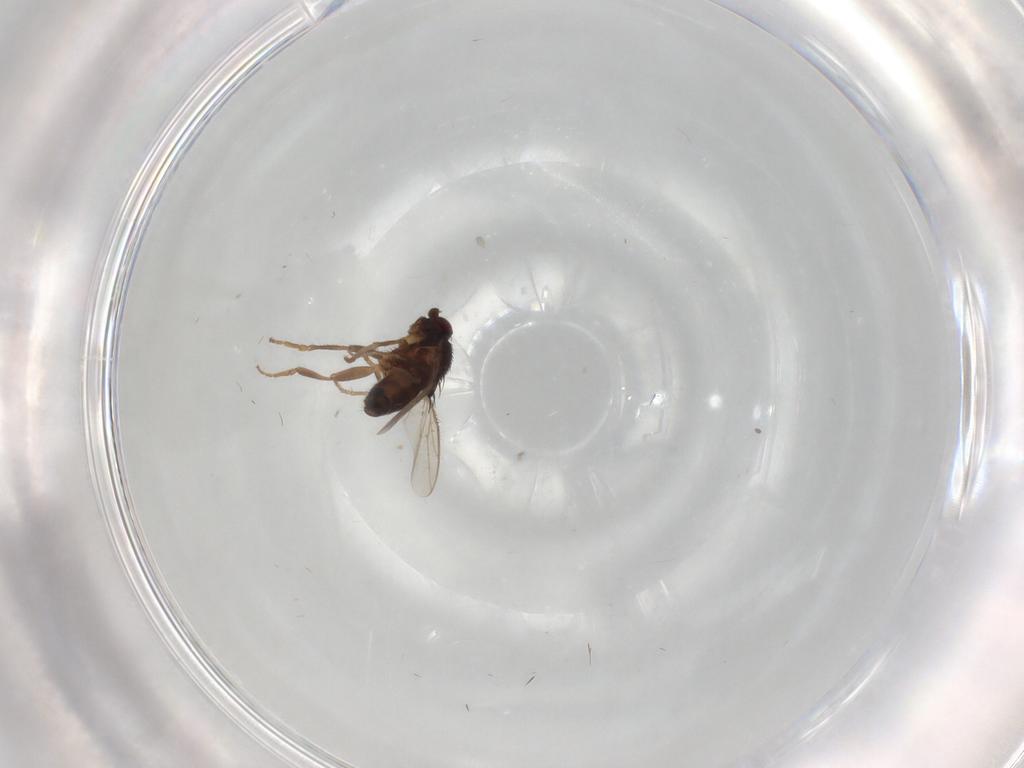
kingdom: Animalia
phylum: Arthropoda
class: Insecta
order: Diptera
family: Sphaeroceridae
